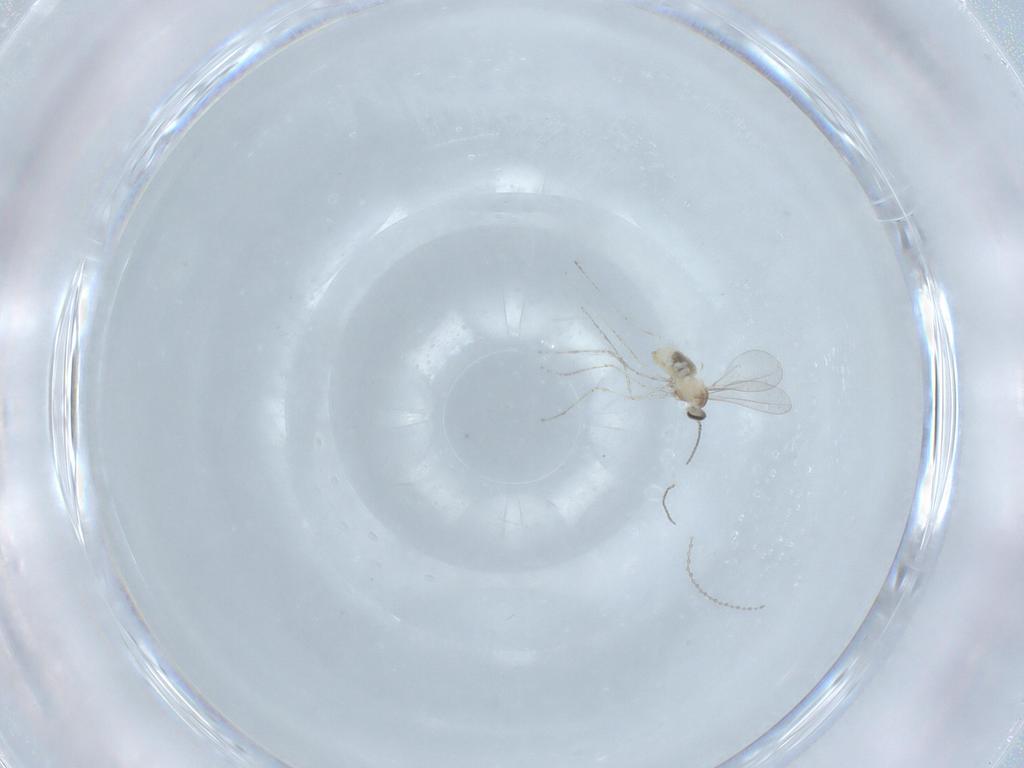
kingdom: Animalia
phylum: Arthropoda
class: Insecta
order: Diptera
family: Cecidomyiidae
